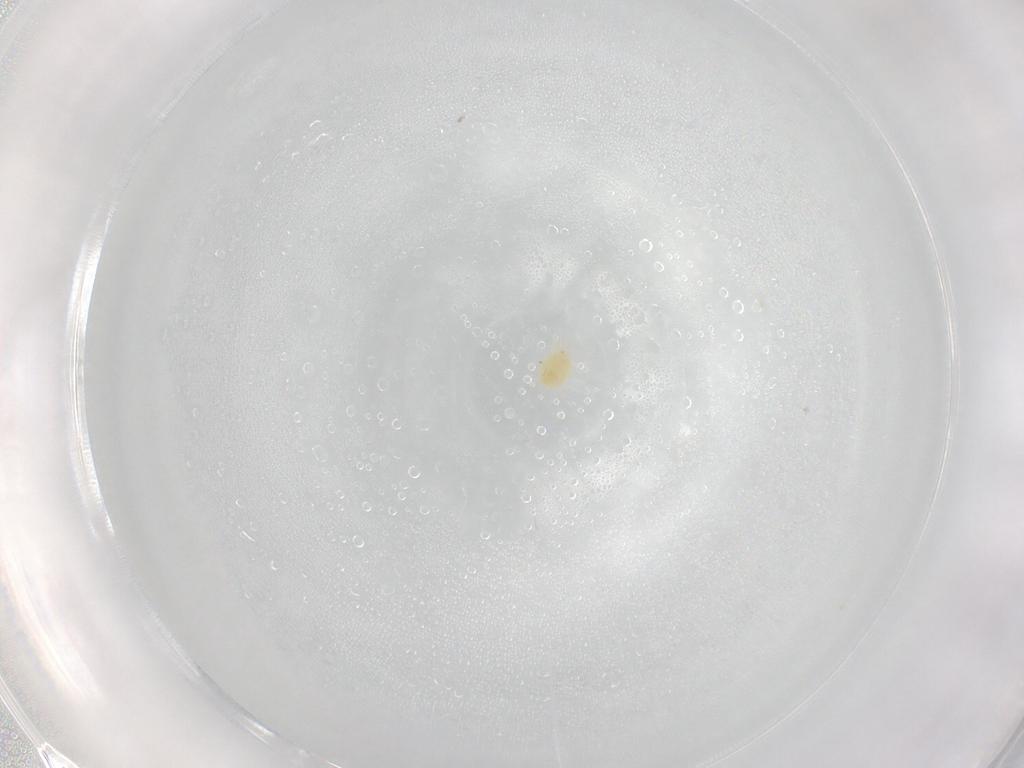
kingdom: Animalia
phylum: Arthropoda
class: Arachnida
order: Trombidiformes
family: Tetranychidae
